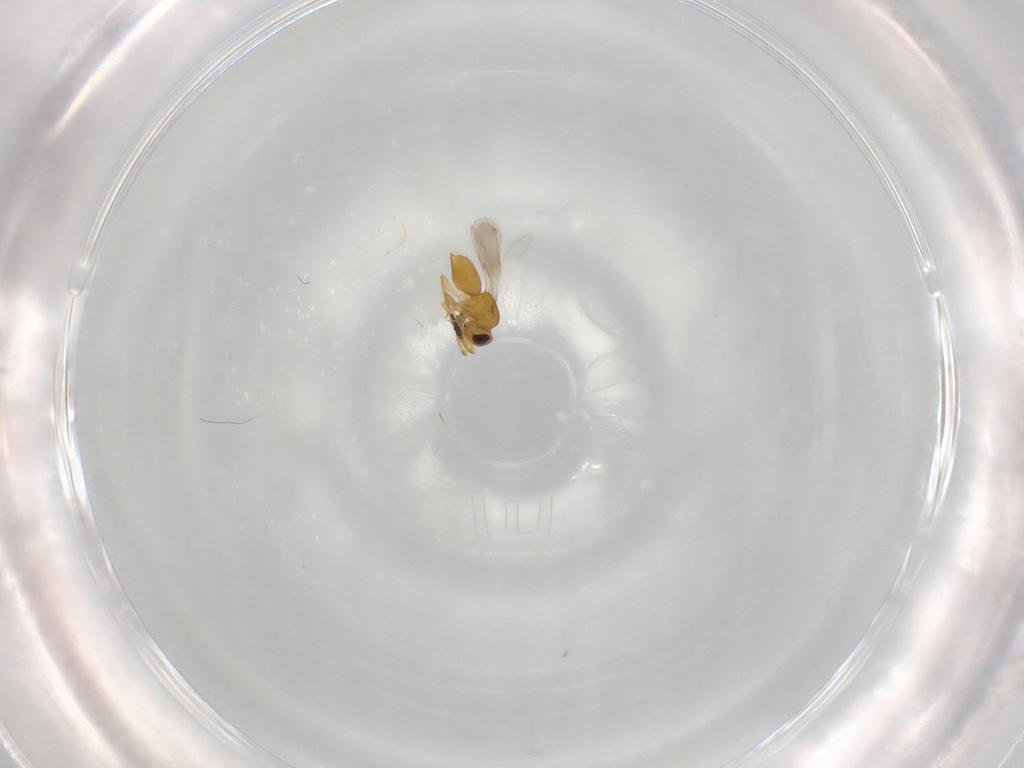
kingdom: Animalia
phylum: Arthropoda
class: Insecta
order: Hymenoptera
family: Ceraphronidae
